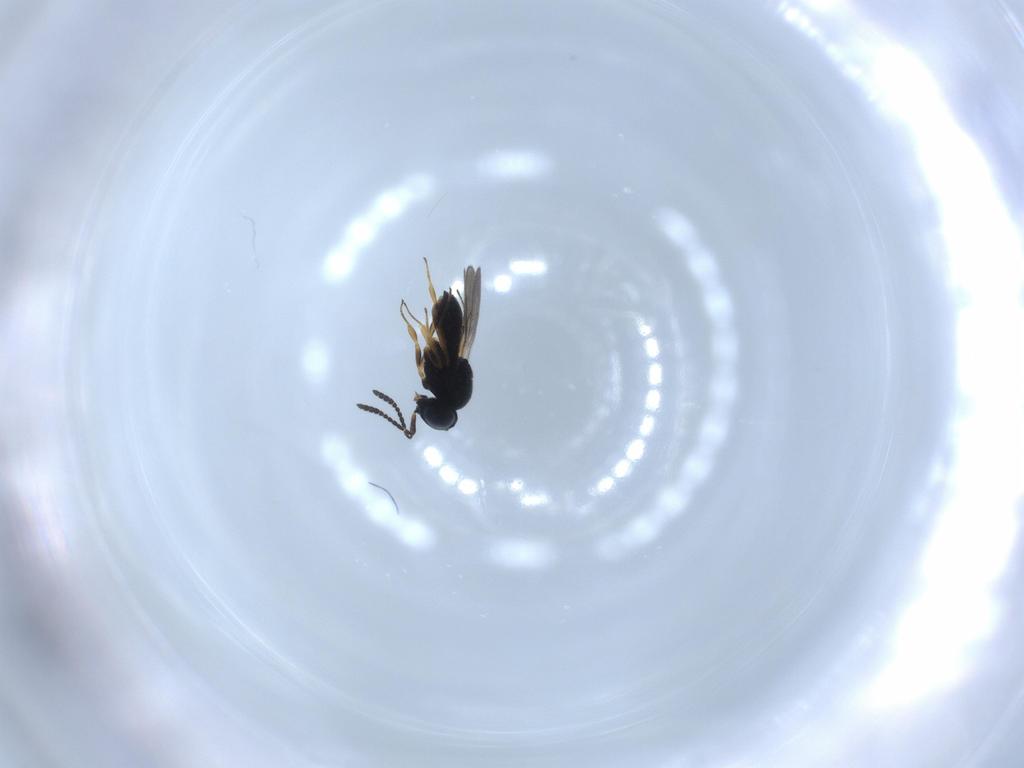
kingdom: Animalia
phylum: Arthropoda
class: Insecta
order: Hymenoptera
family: Scelionidae
